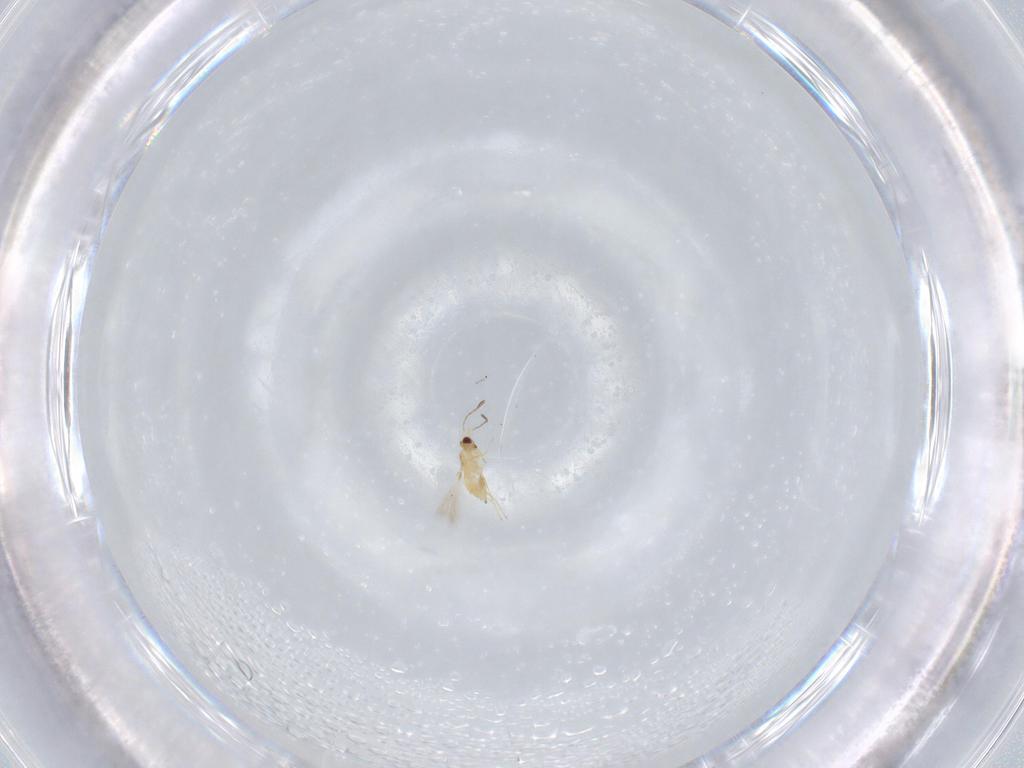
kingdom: Animalia
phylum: Arthropoda
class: Insecta
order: Hymenoptera
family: Mymaridae
